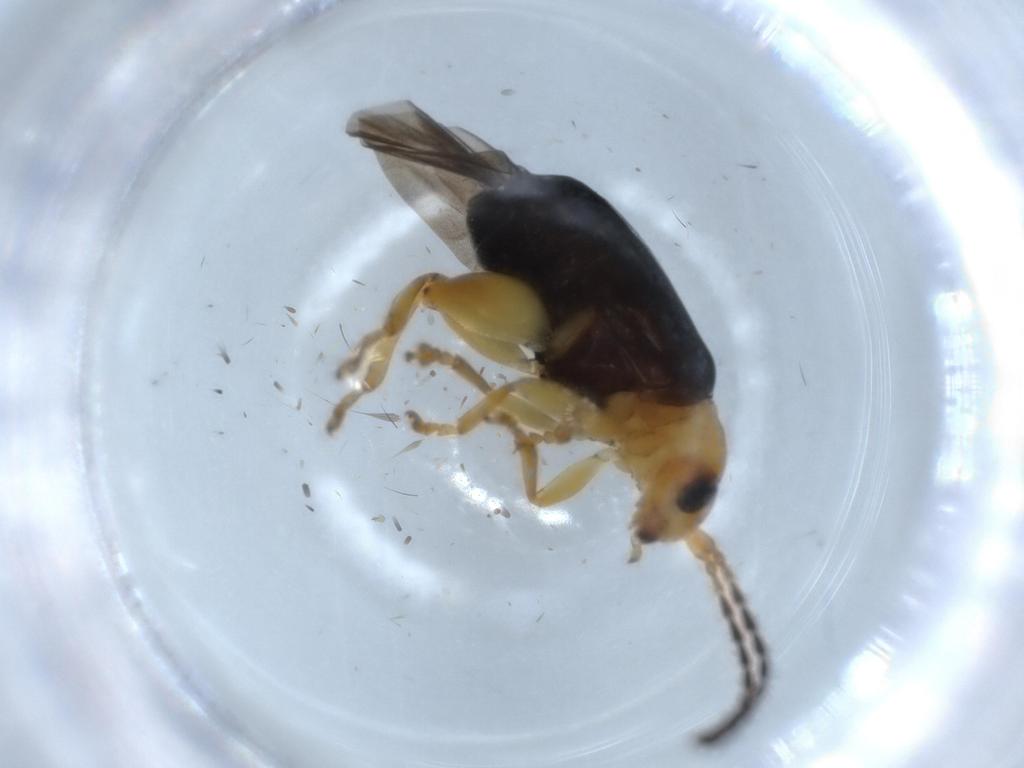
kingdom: Animalia
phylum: Arthropoda
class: Insecta
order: Coleoptera
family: Chrysomelidae
